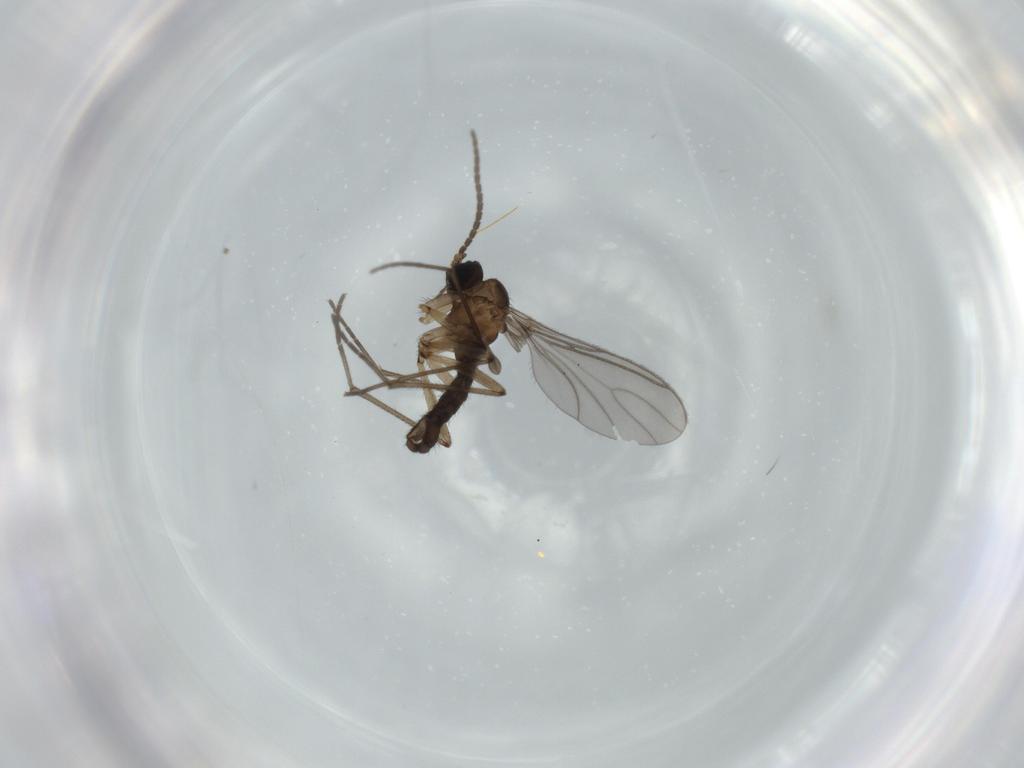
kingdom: Animalia
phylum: Arthropoda
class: Insecta
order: Diptera
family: Sciaridae
